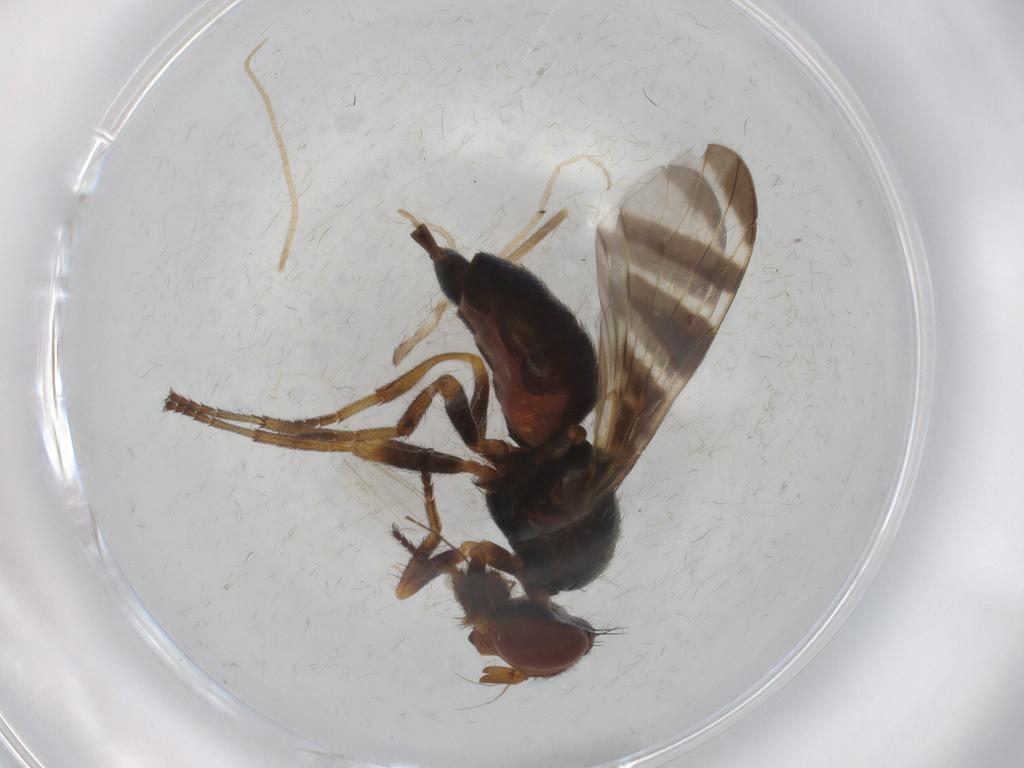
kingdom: Animalia
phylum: Arthropoda
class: Insecta
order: Diptera
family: Platystomatidae
